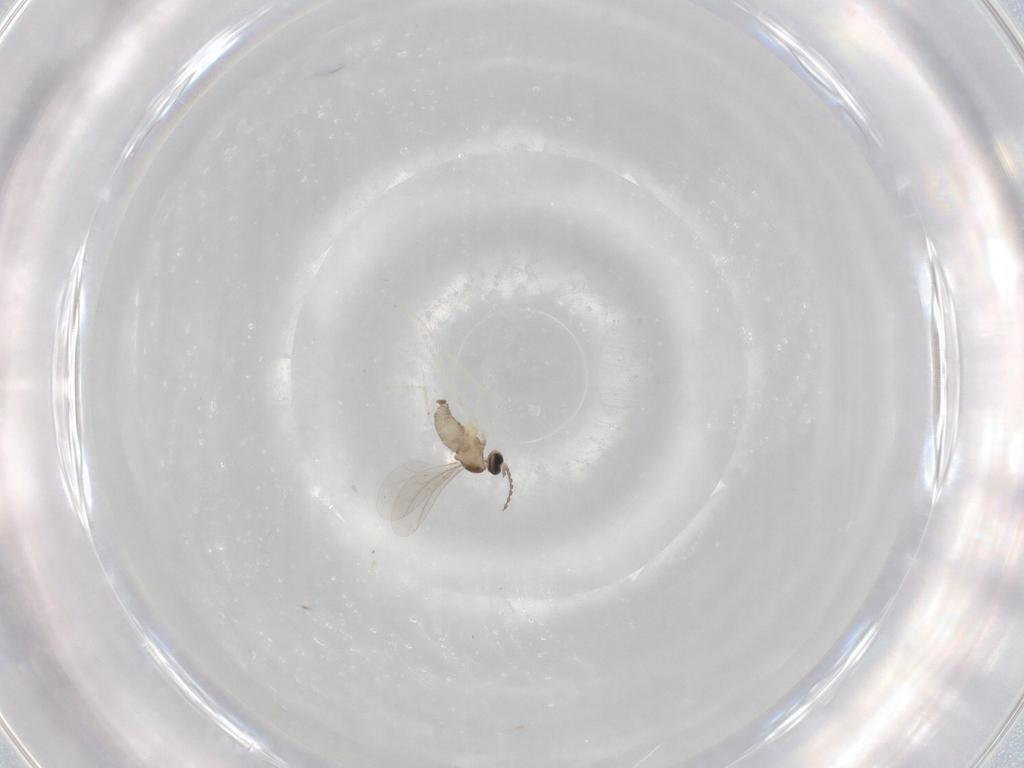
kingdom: Animalia
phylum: Arthropoda
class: Insecta
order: Diptera
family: Cecidomyiidae
